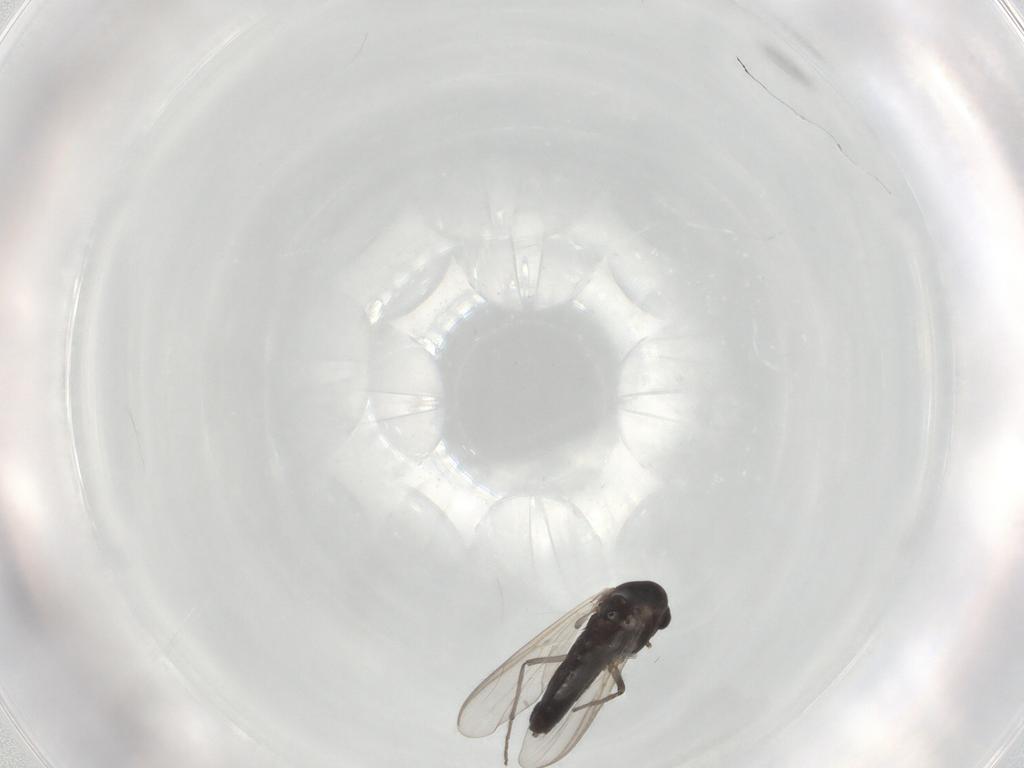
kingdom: Animalia
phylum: Arthropoda
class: Insecta
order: Diptera
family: Chironomidae
